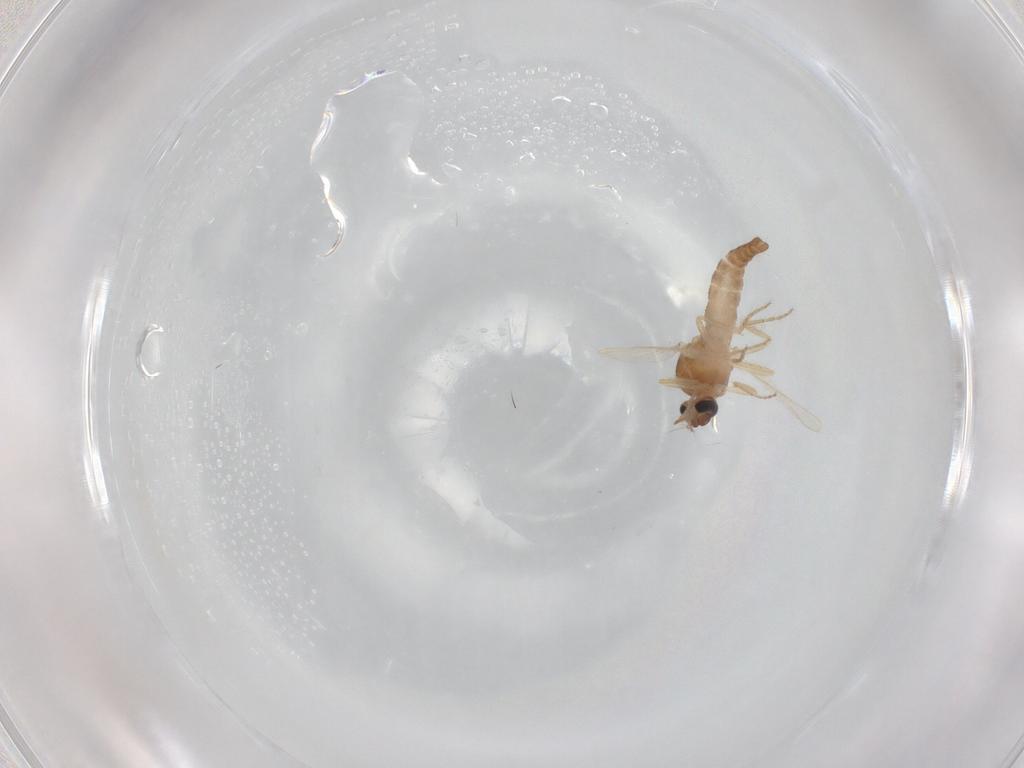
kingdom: Animalia
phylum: Arthropoda
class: Insecta
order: Diptera
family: Ceratopogonidae
